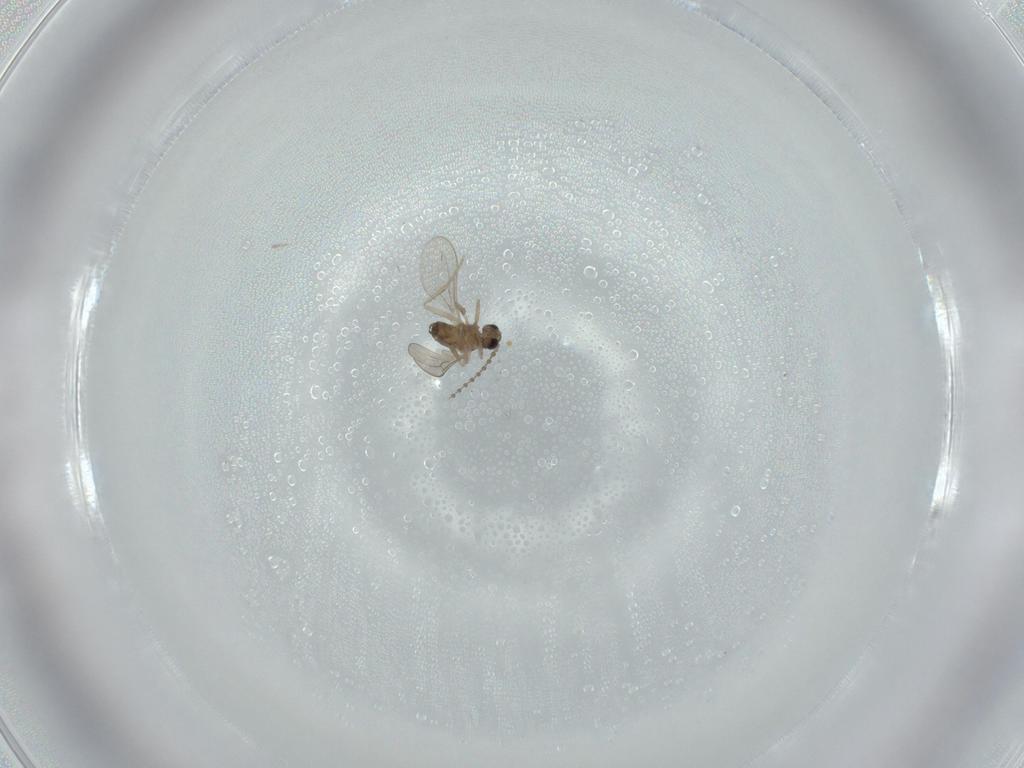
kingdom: Animalia
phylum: Arthropoda
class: Insecta
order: Diptera
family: Cecidomyiidae
